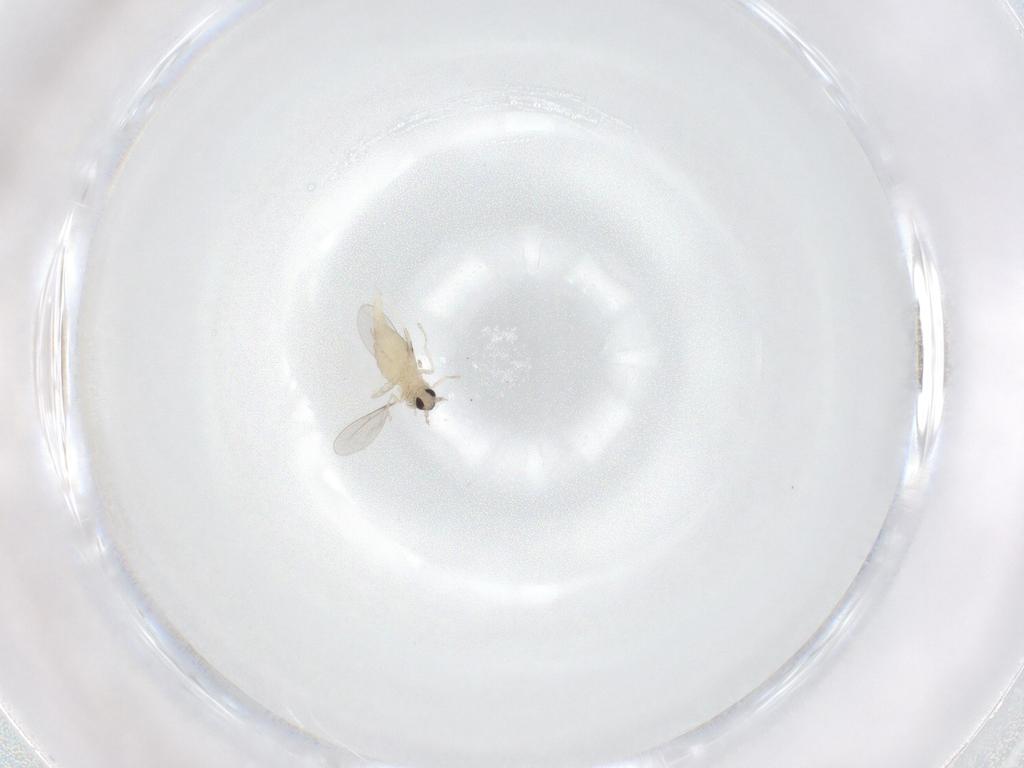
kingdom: Animalia
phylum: Arthropoda
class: Insecta
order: Diptera
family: Cecidomyiidae
